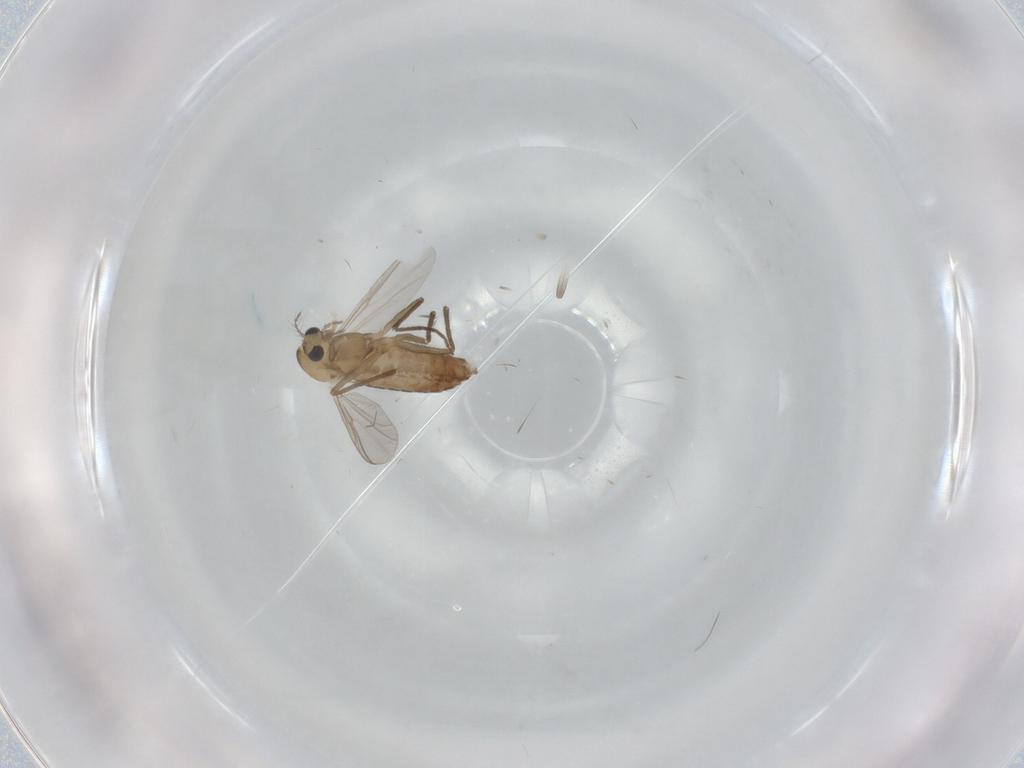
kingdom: Animalia
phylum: Arthropoda
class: Insecta
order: Diptera
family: Chironomidae
